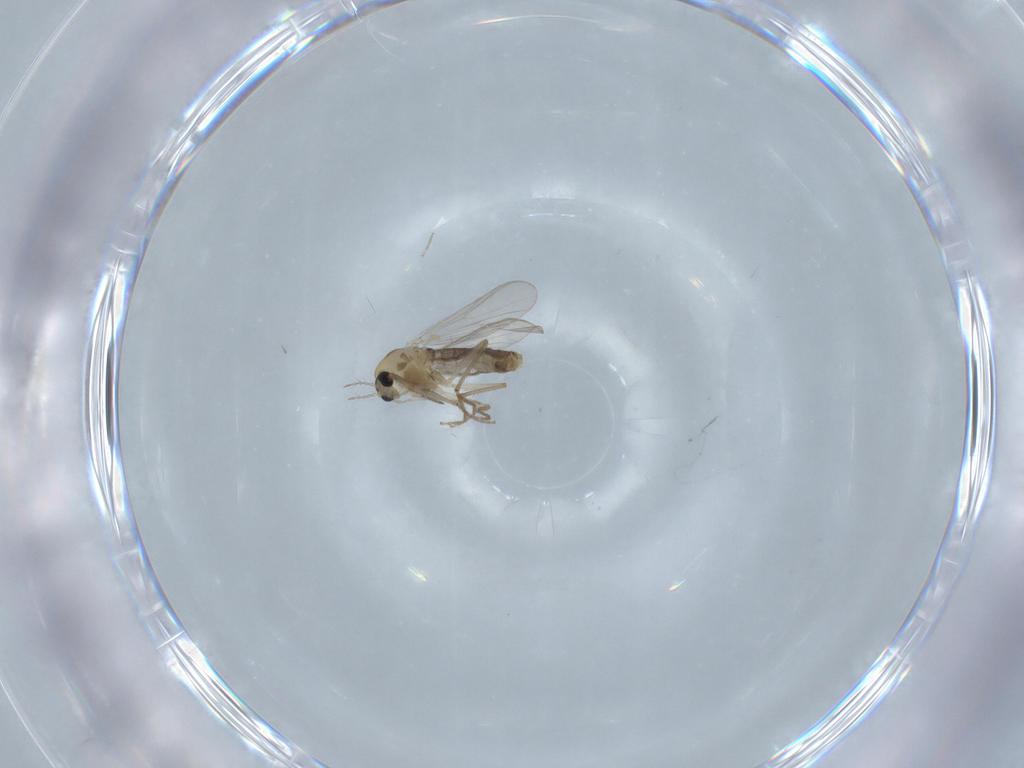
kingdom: Animalia
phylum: Arthropoda
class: Insecta
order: Diptera
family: Chironomidae
